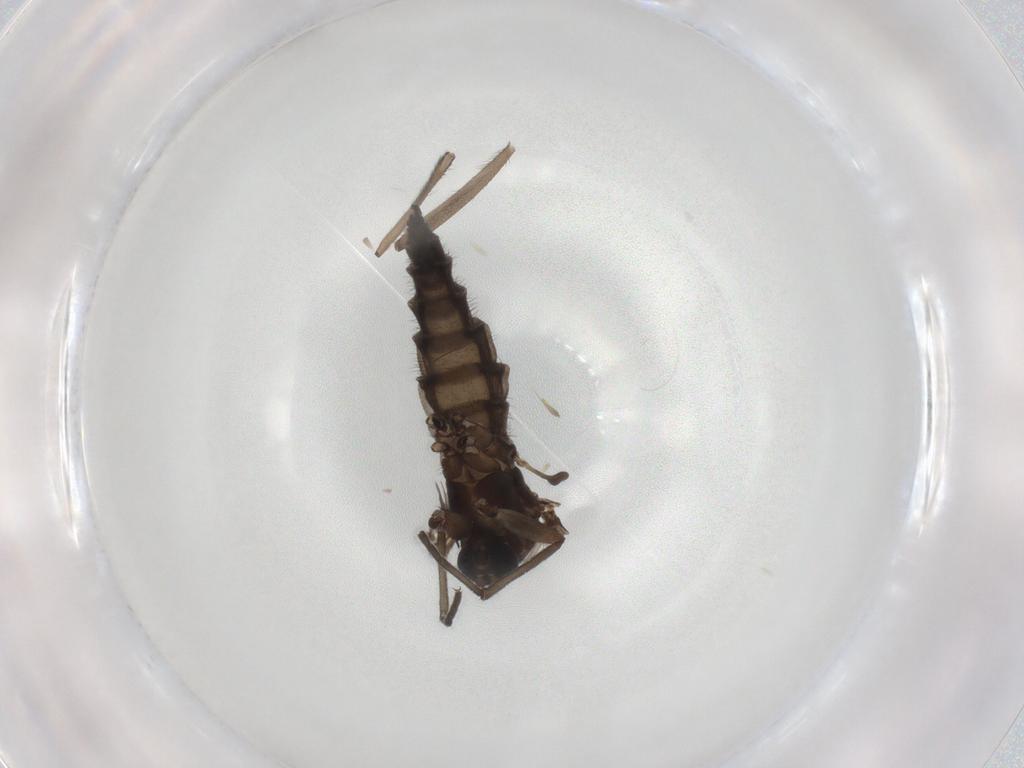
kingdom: Animalia
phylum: Arthropoda
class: Insecta
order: Diptera
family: Sciaridae
